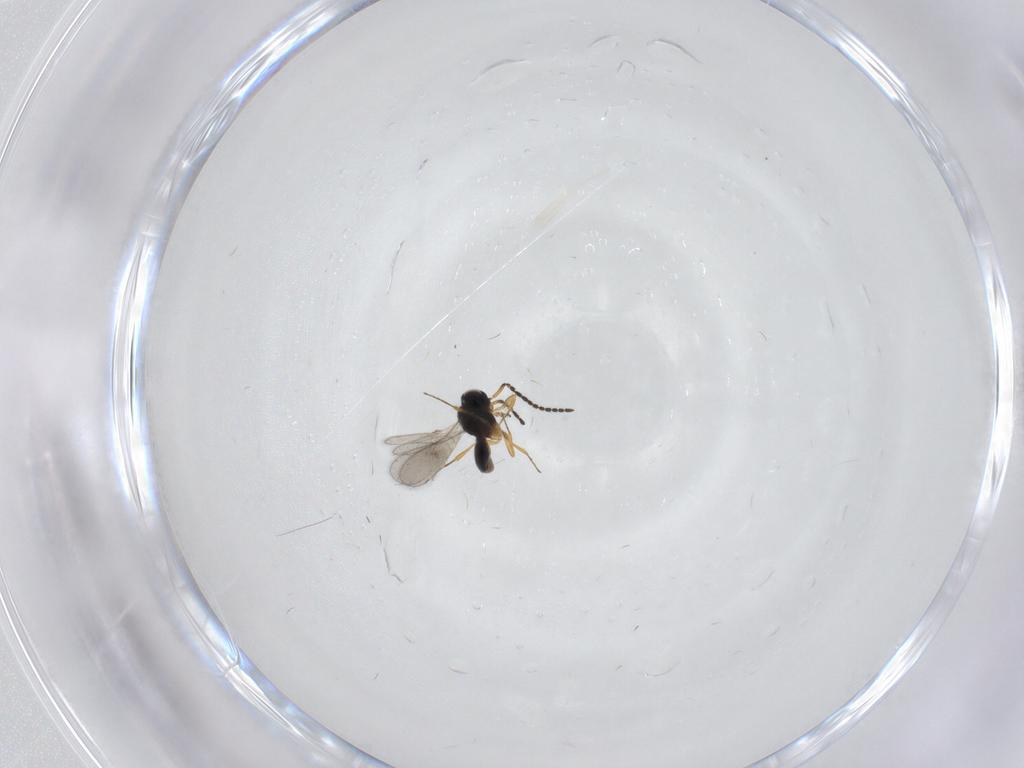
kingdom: Animalia
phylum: Arthropoda
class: Insecta
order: Hymenoptera
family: Scelionidae
